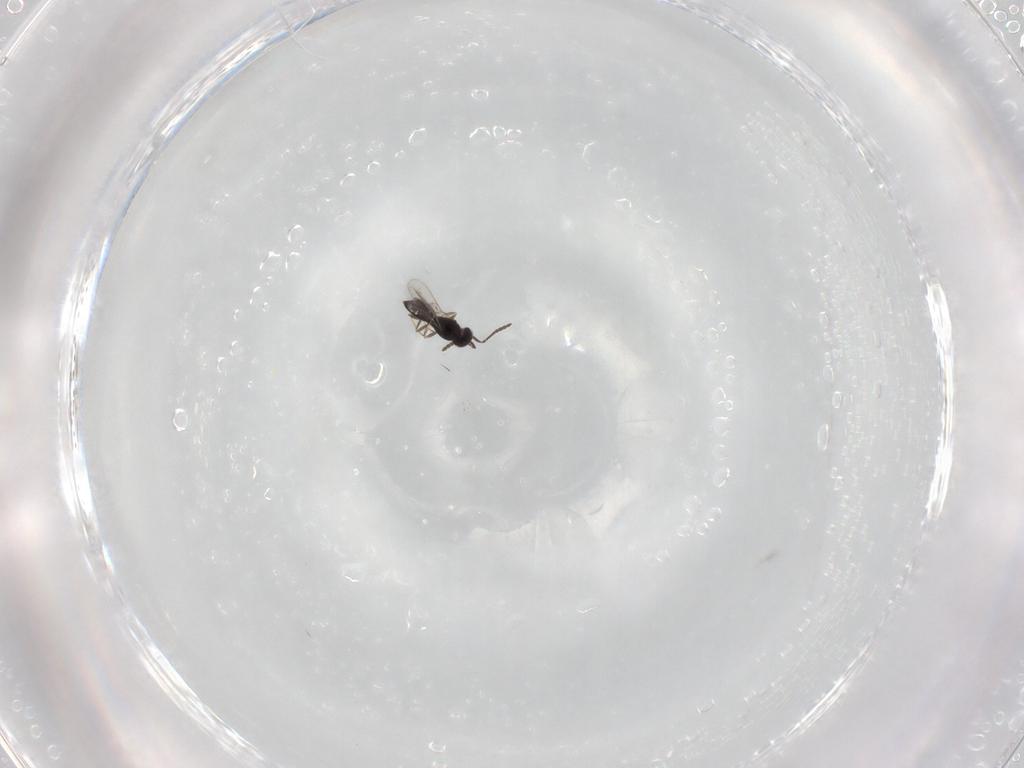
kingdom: Animalia
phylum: Arthropoda
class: Insecta
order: Hymenoptera
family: Scelionidae
